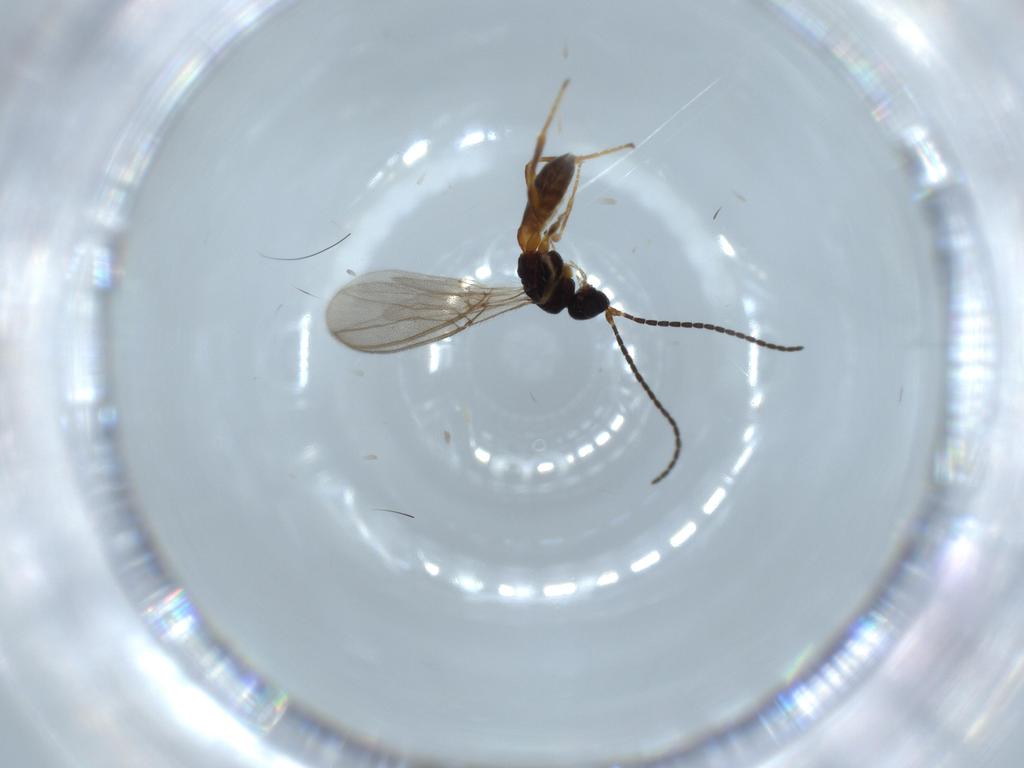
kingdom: Animalia
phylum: Arthropoda
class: Insecta
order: Hymenoptera
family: Braconidae
